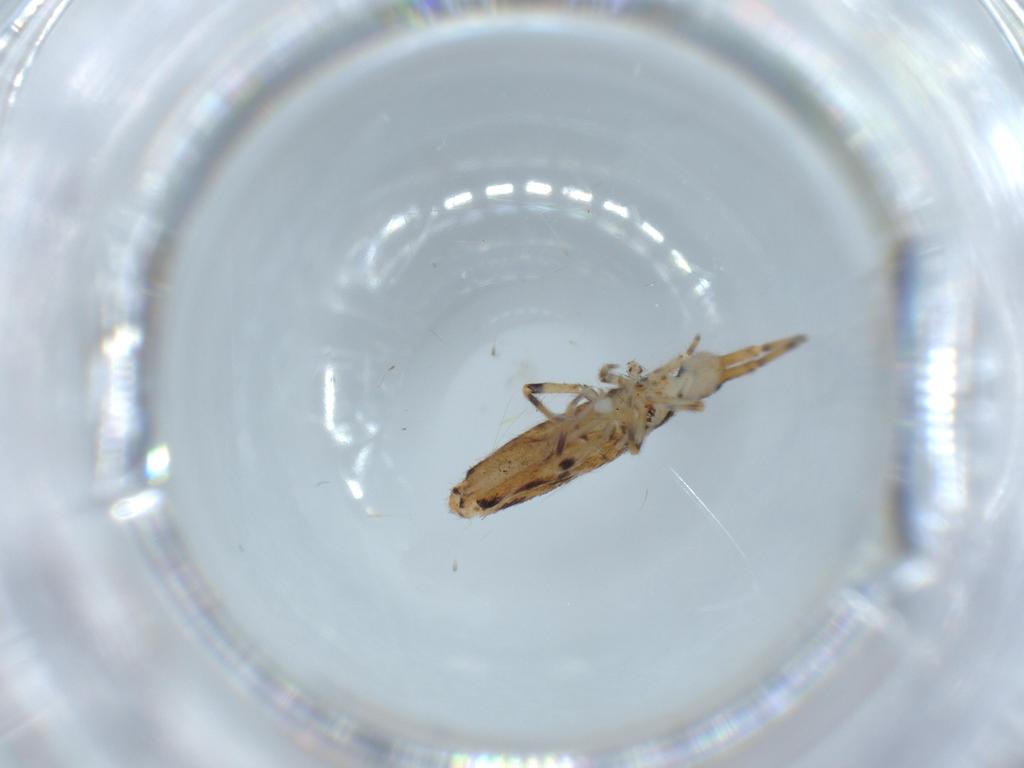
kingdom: Animalia
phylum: Arthropoda
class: Collembola
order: Entomobryomorpha
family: Entomobryidae
